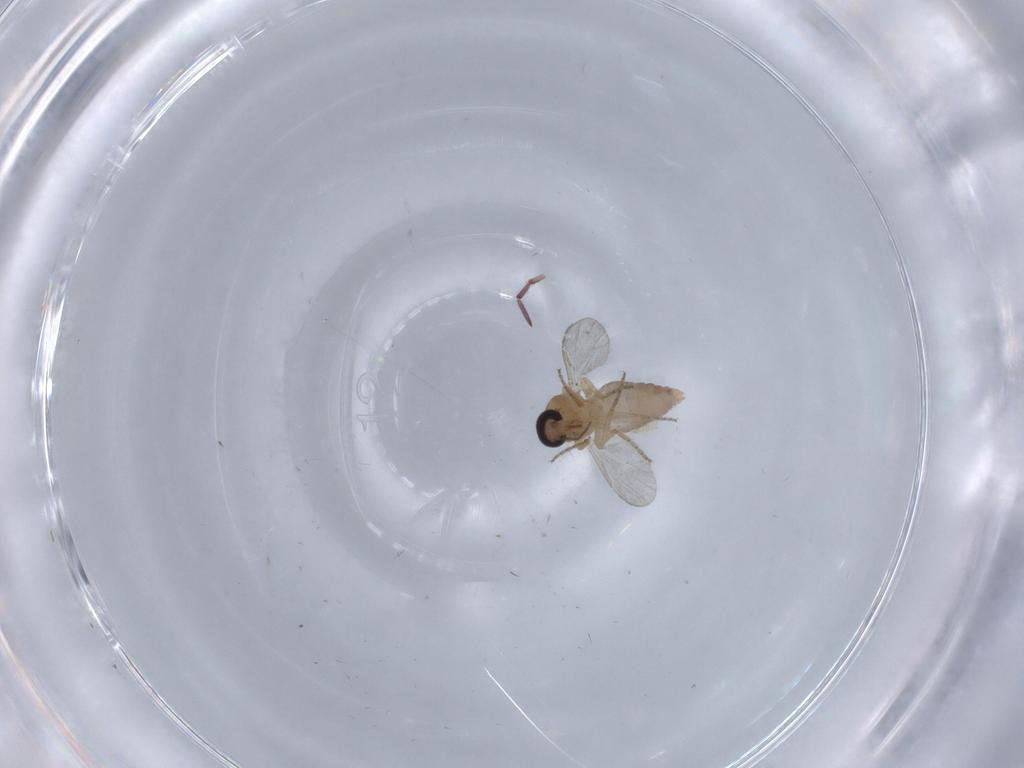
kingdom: Animalia
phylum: Arthropoda
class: Insecta
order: Diptera
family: Ceratopogonidae
